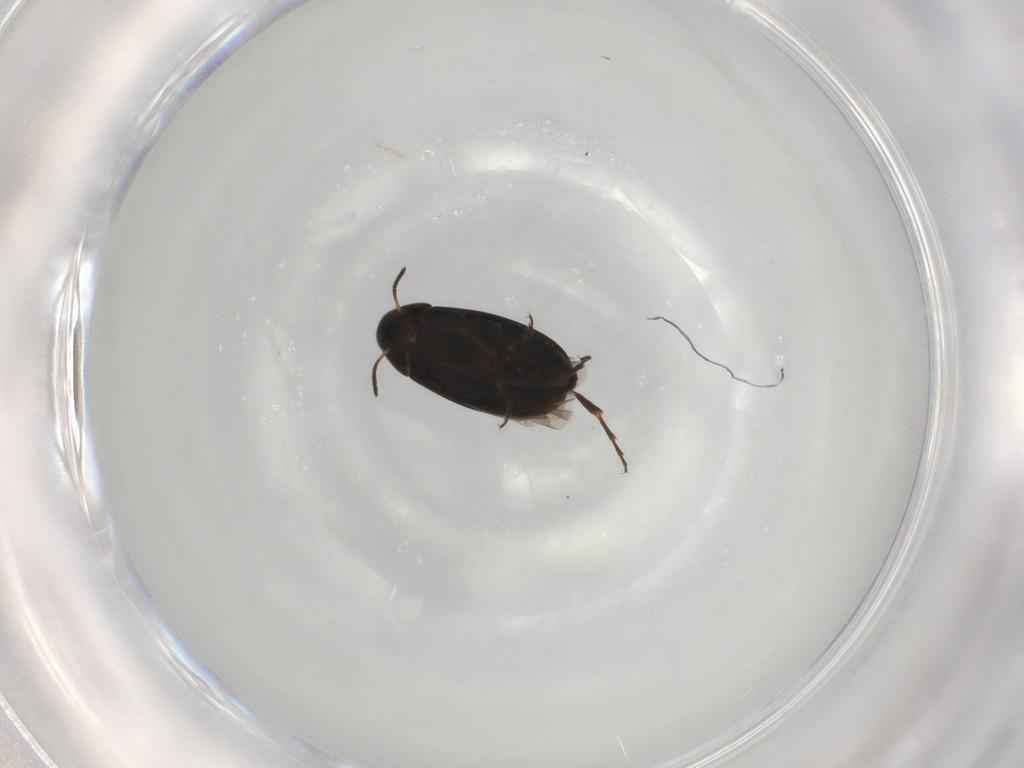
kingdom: Animalia
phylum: Arthropoda
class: Insecta
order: Coleoptera
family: Scraptiidae
